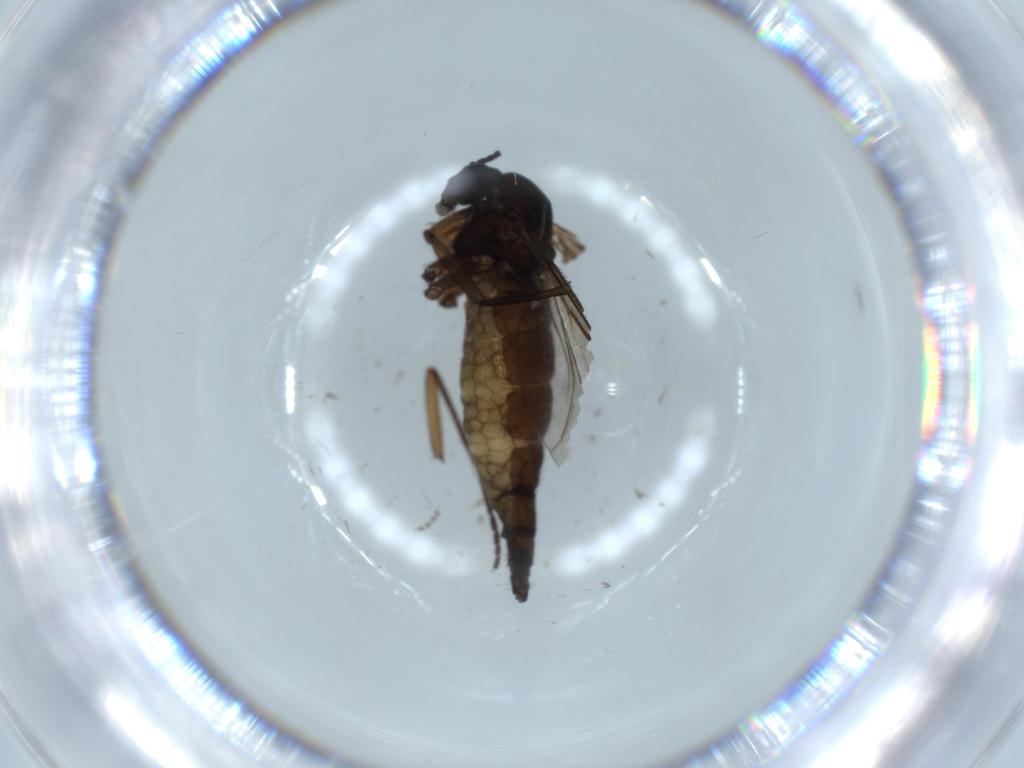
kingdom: Animalia
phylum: Arthropoda
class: Insecta
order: Diptera
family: Sciaridae
